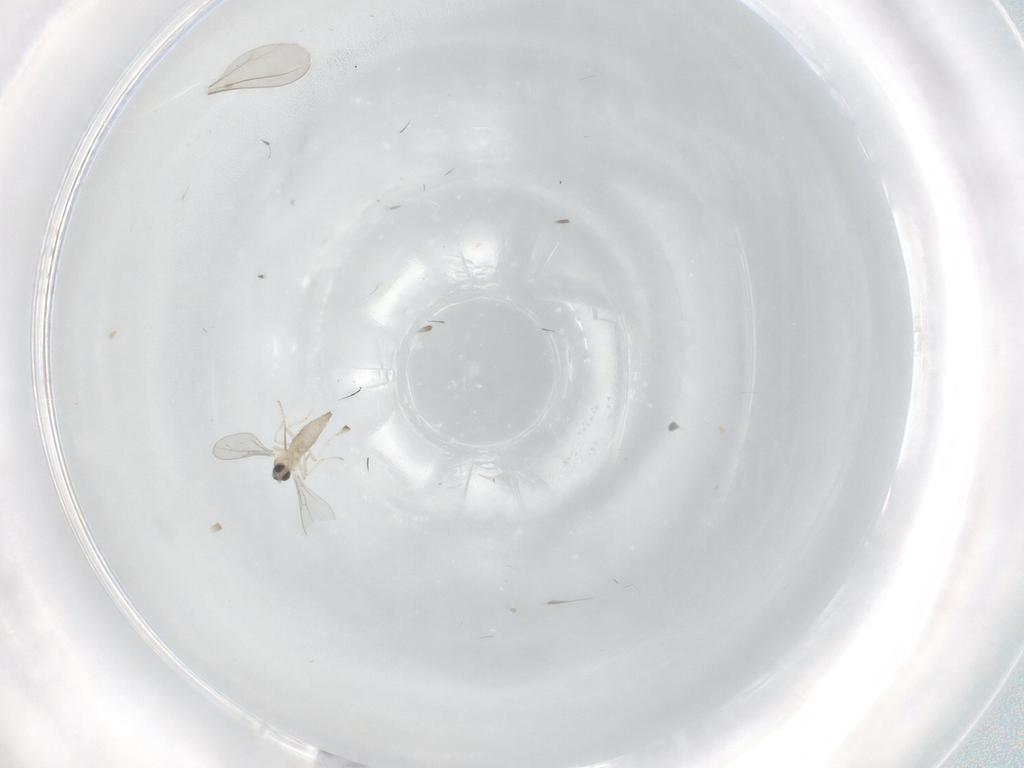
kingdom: Animalia
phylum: Arthropoda
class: Insecta
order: Diptera
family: Cecidomyiidae
